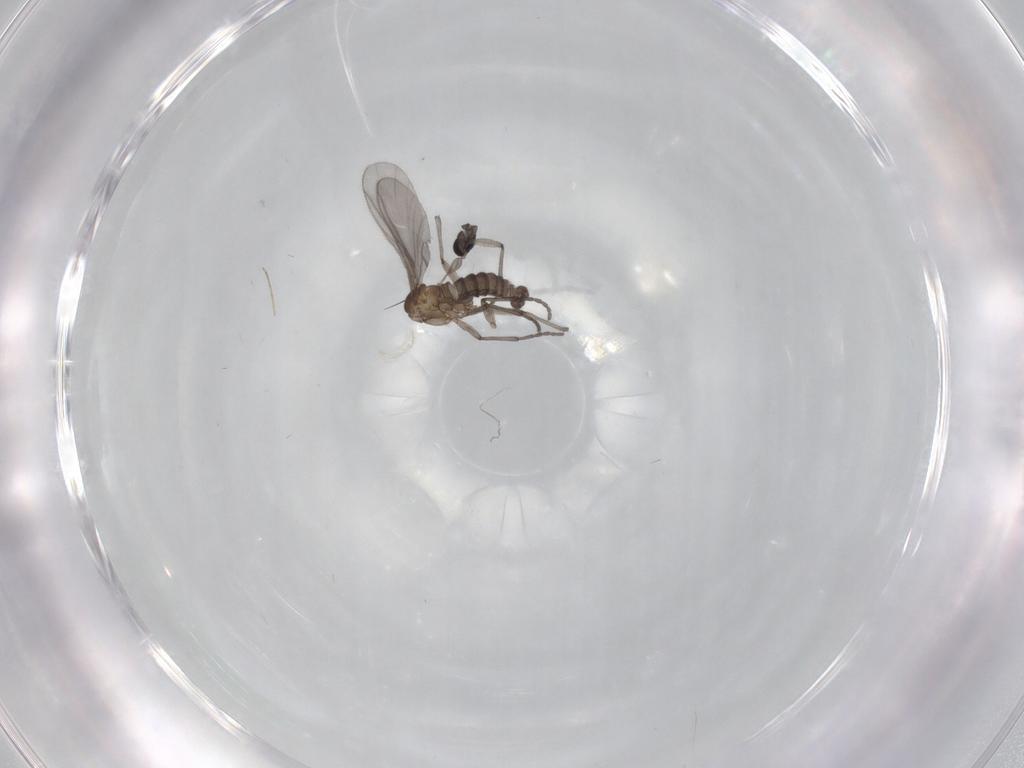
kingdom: Animalia
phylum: Arthropoda
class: Insecta
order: Diptera
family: Sciaridae
